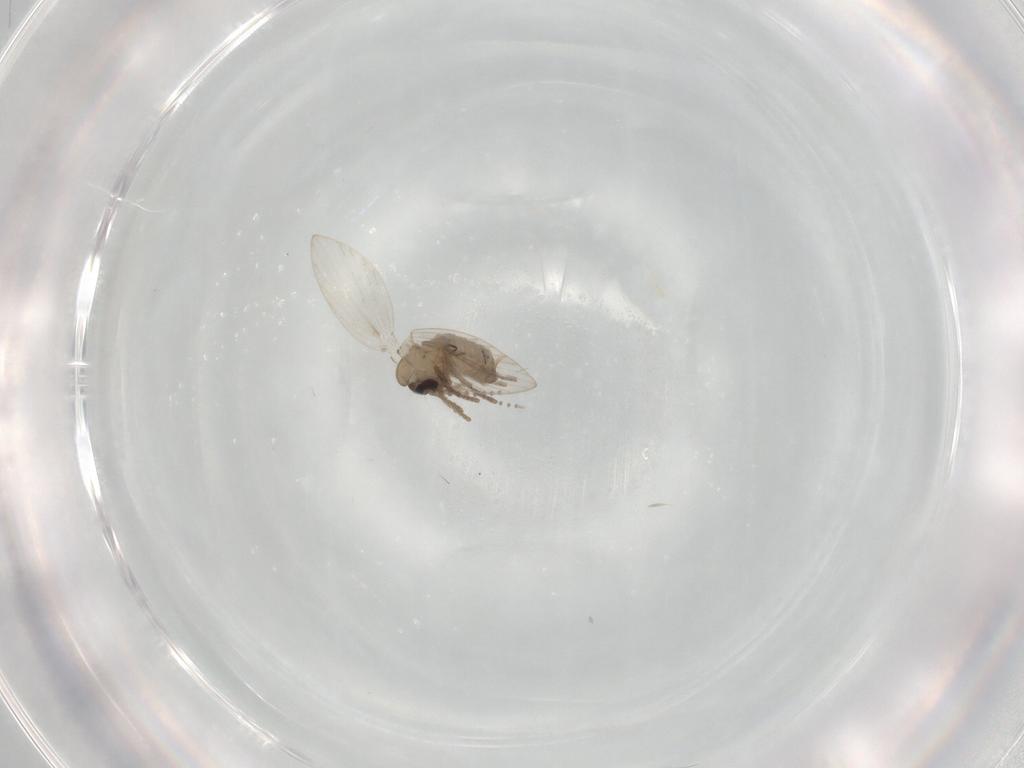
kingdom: Animalia
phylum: Arthropoda
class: Insecta
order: Diptera
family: Psychodidae
